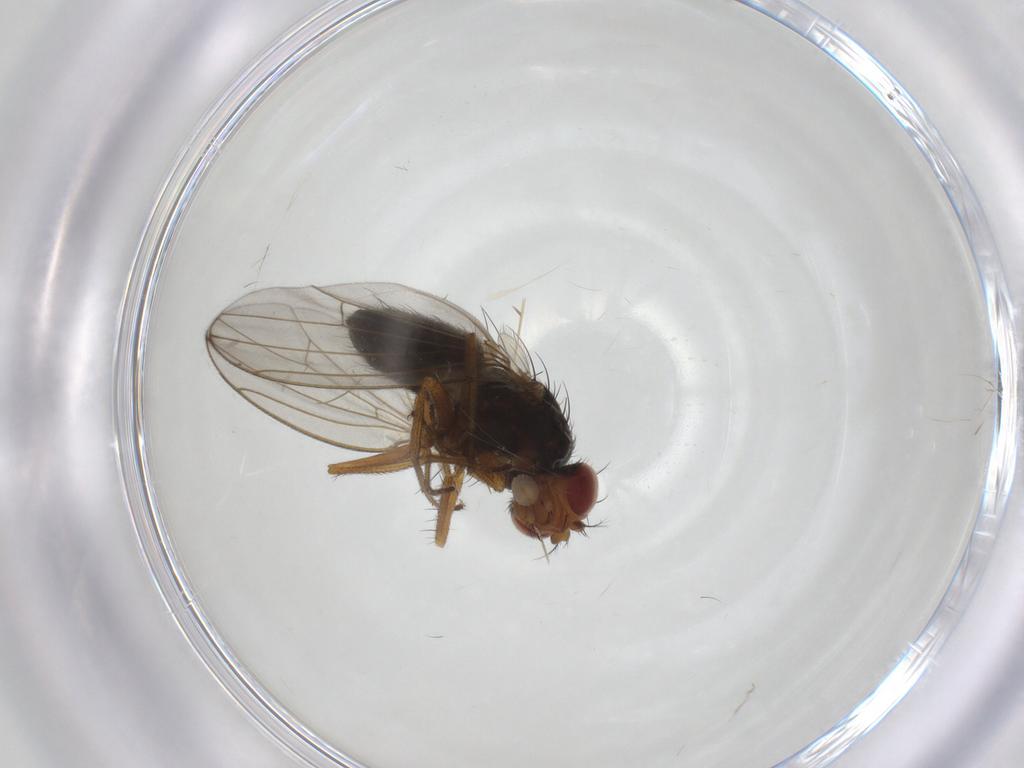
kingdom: Animalia
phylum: Arthropoda
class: Insecta
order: Diptera
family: Drosophilidae
